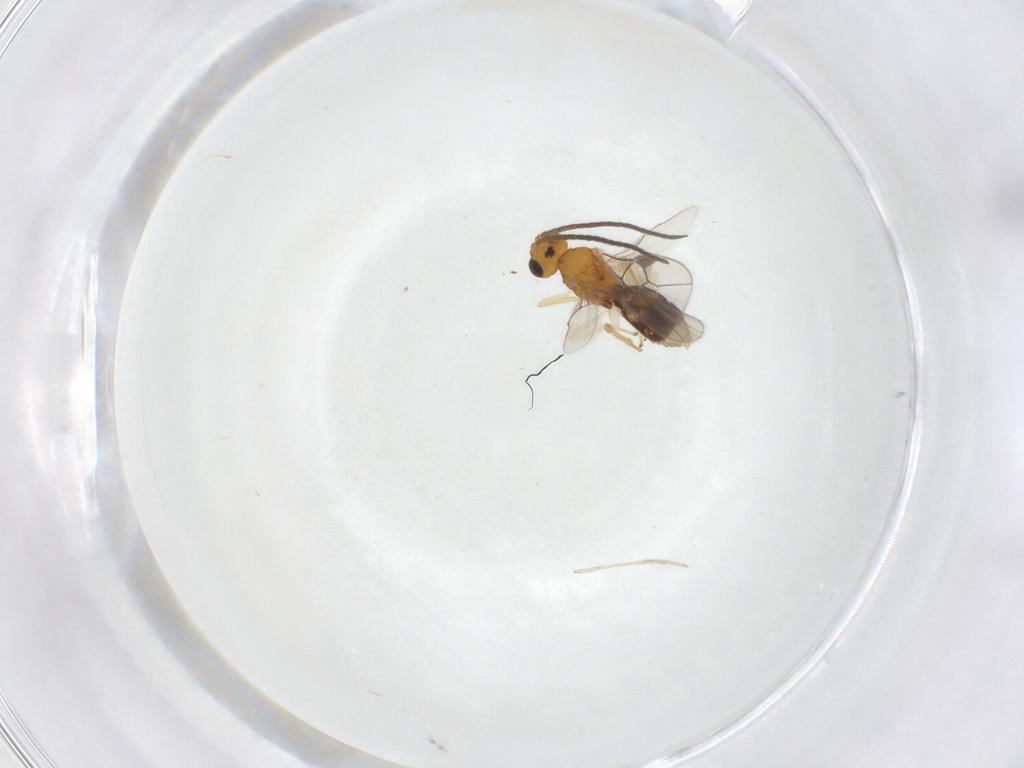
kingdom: Animalia
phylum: Arthropoda
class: Insecta
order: Hymenoptera
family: Braconidae
